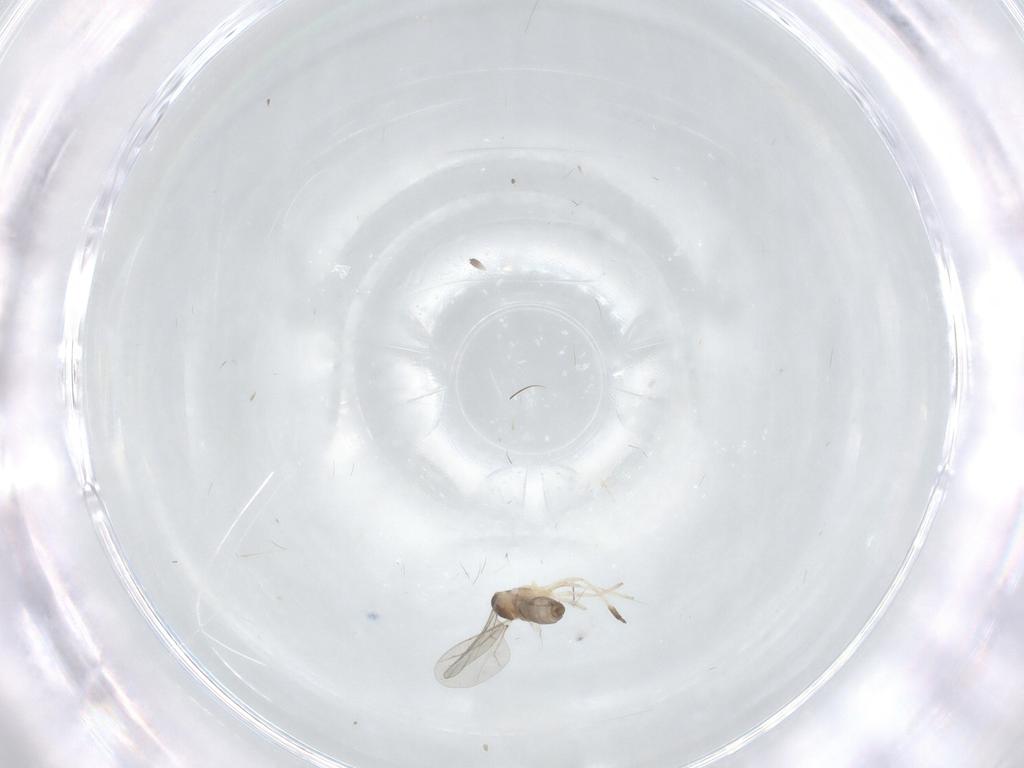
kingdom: Animalia
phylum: Arthropoda
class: Insecta
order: Diptera
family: Cecidomyiidae
